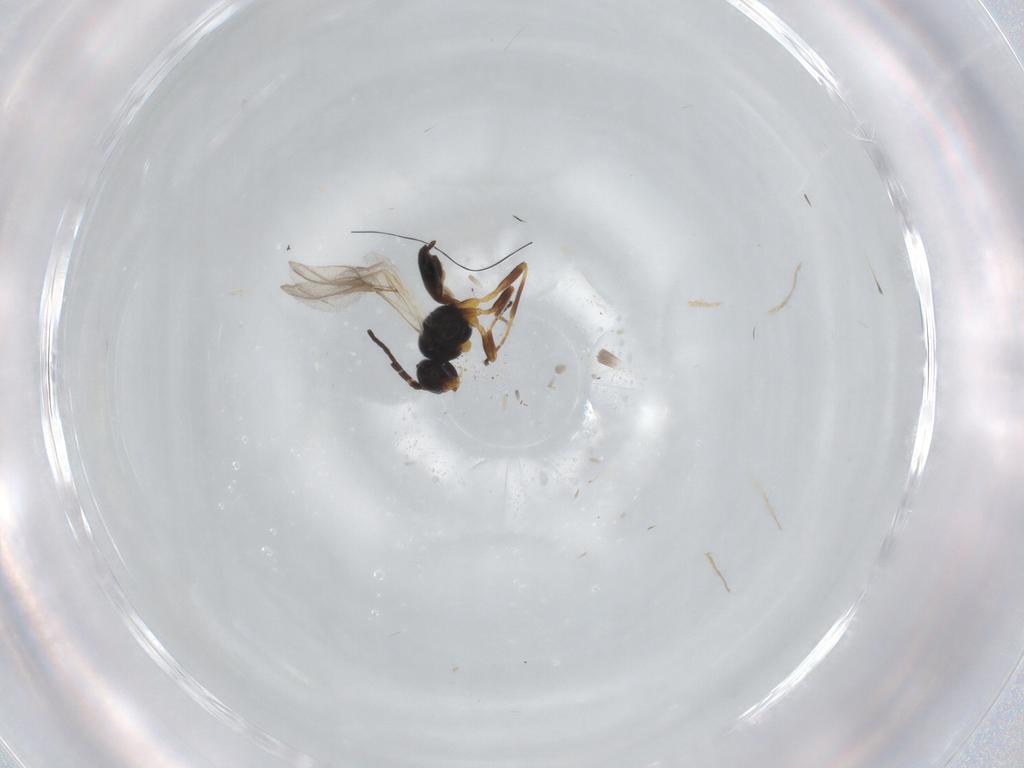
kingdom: Animalia
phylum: Arthropoda
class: Insecta
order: Hymenoptera
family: Braconidae
